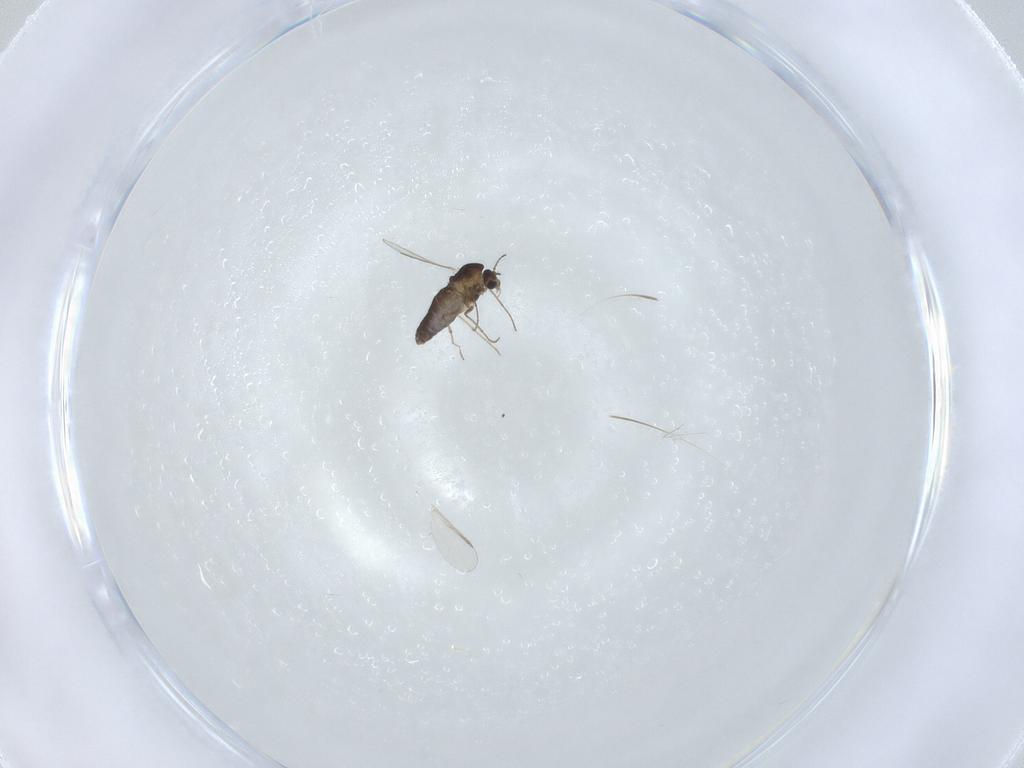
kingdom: Animalia
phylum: Arthropoda
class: Insecta
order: Diptera
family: Chironomidae
